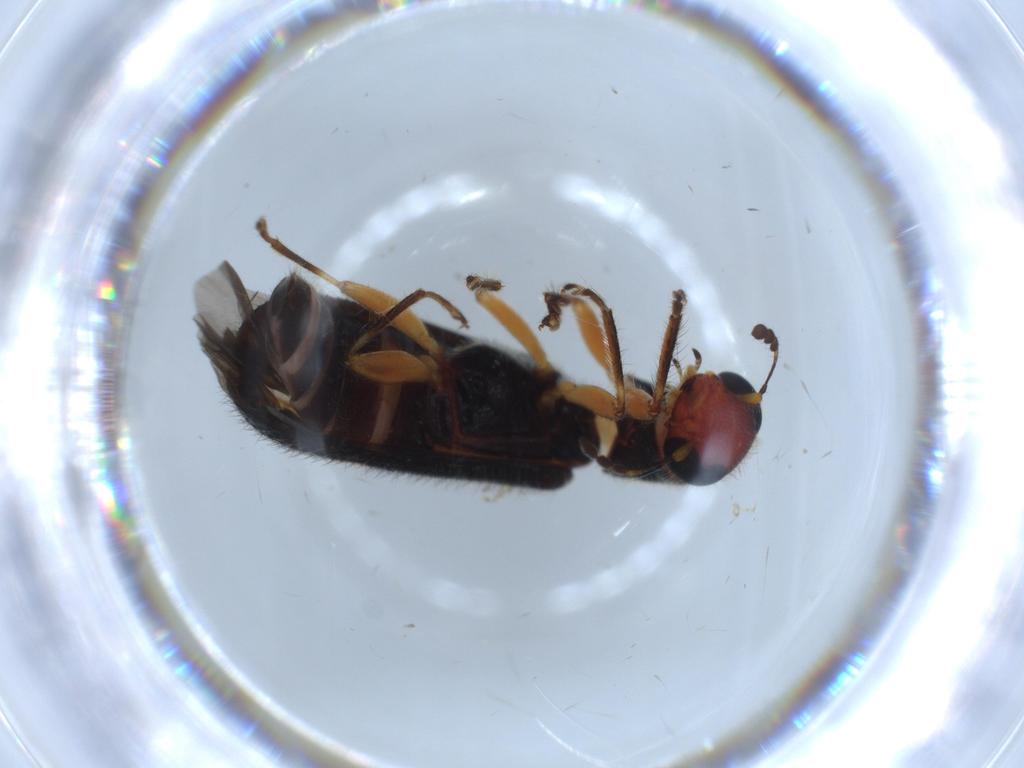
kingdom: Animalia
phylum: Arthropoda
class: Insecta
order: Coleoptera
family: Cleridae
